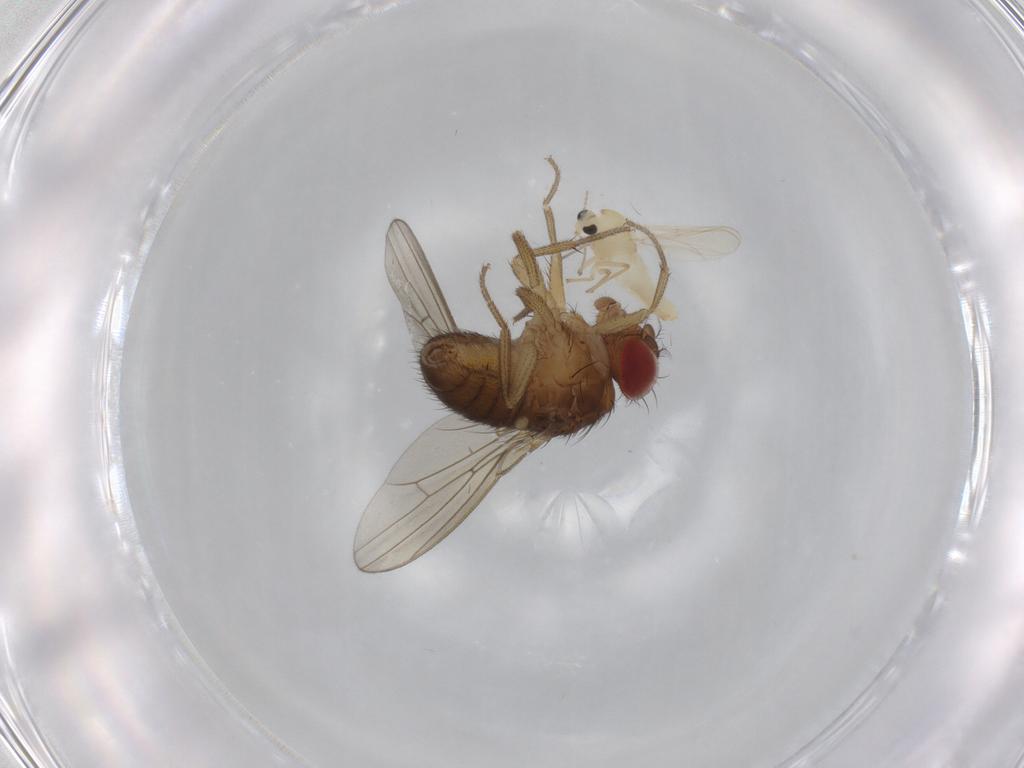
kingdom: Animalia
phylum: Arthropoda
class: Insecta
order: Diptera
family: Drosophilidae
